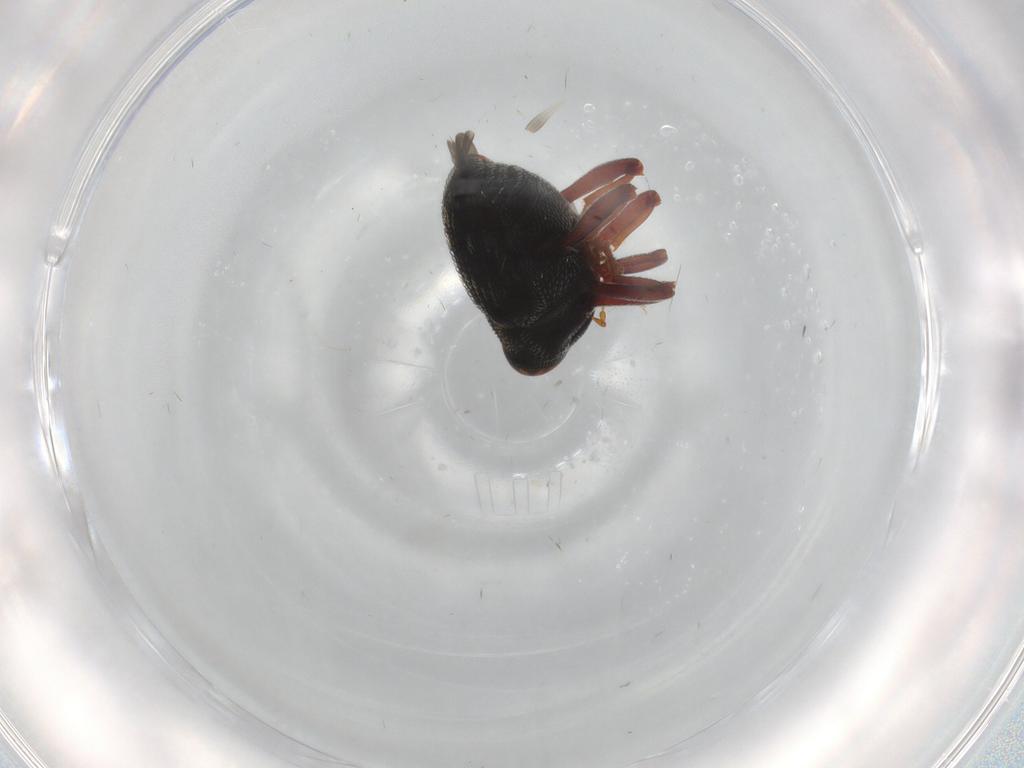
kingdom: Animalia
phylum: Arthropoda
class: Insecta
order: Coleoptera
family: Curculionidae
